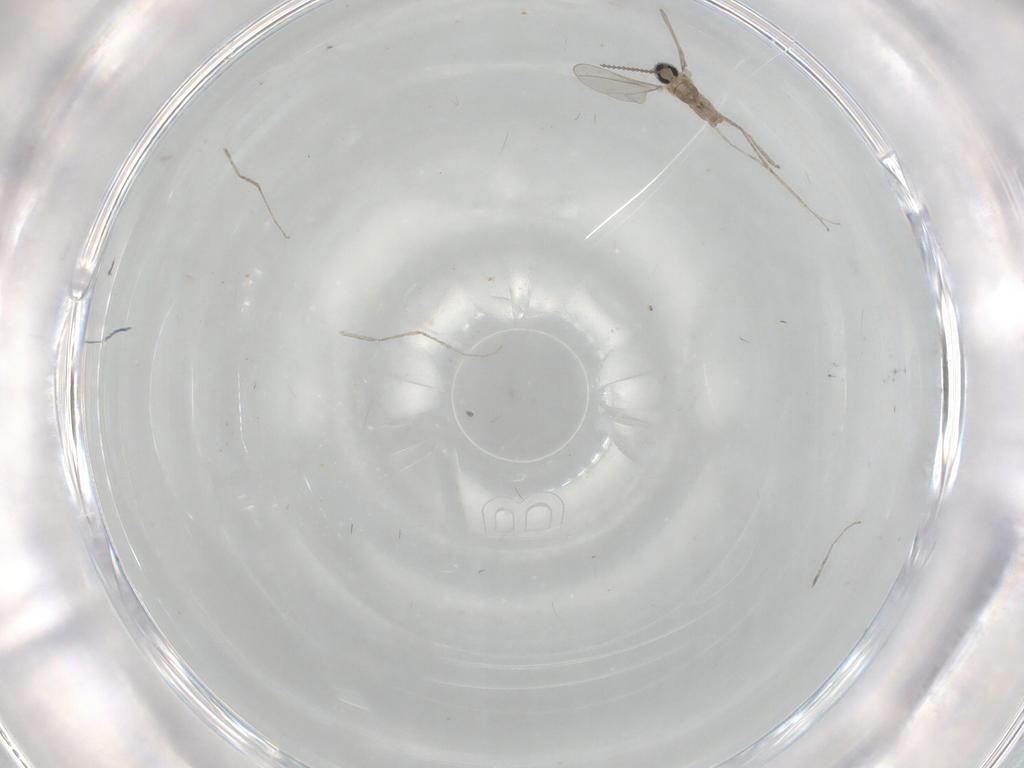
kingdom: Animalia
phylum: Arthropoda
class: Insecta
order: Diptera
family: Cecidomyiidae
